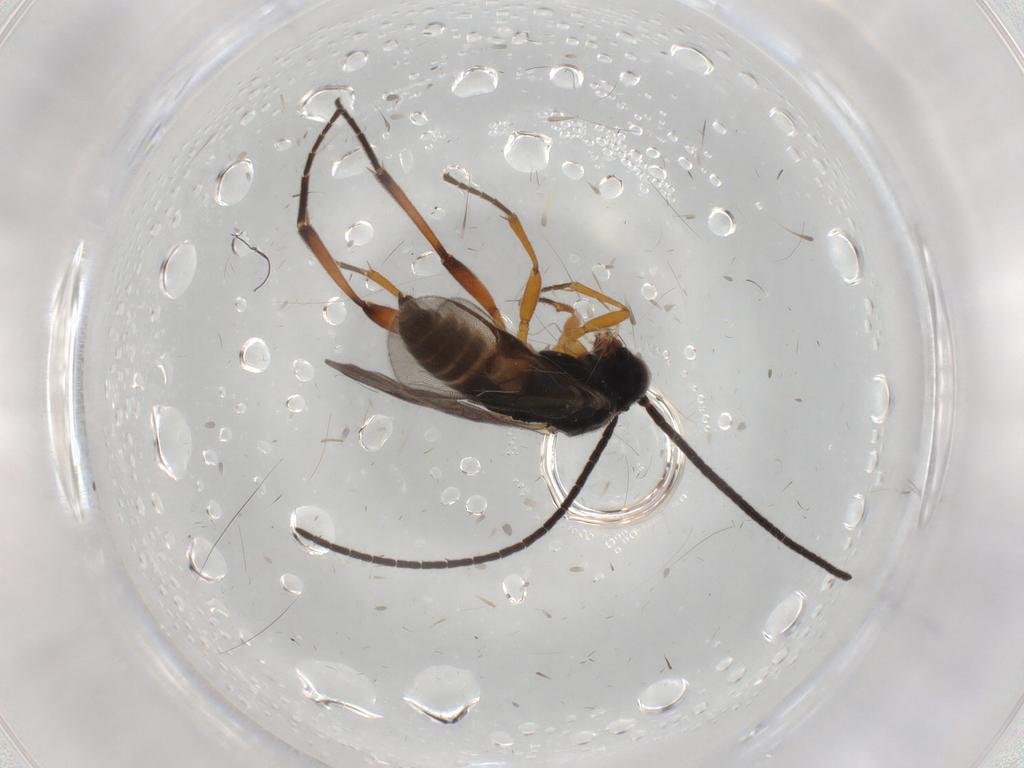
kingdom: Animalia
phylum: Arthropoda
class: Insecta
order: Hymenoptera
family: Braconidae
